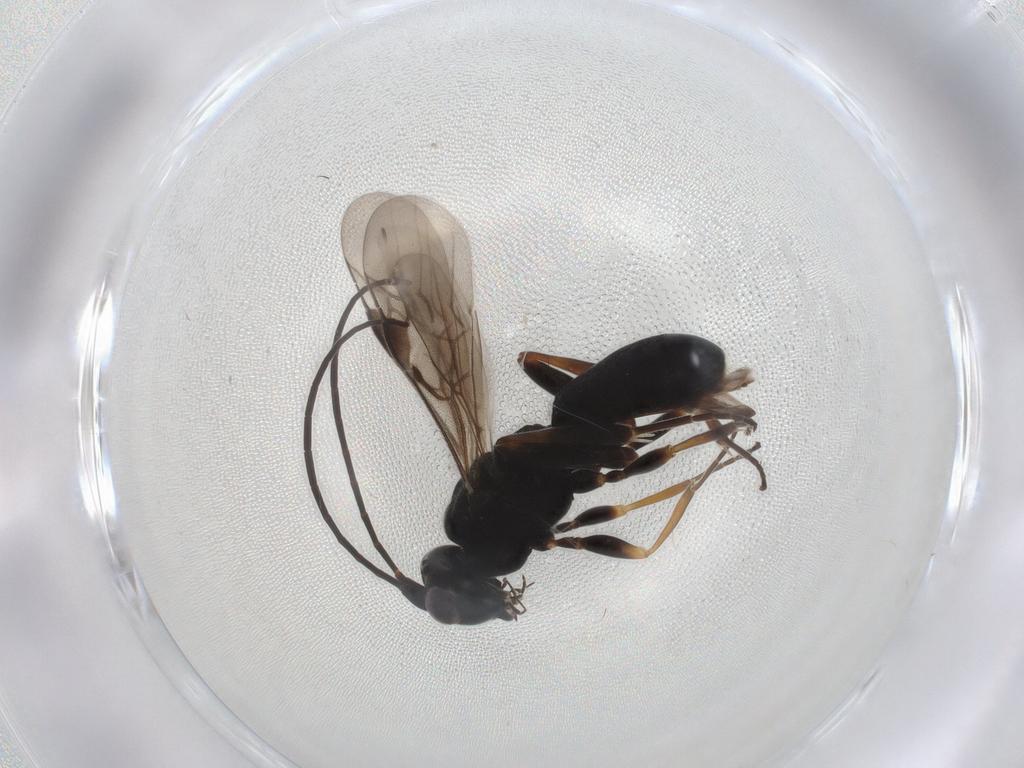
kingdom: Animalia
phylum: Arthropoda
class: Insecta
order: Hymenoptera
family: Braconidae
